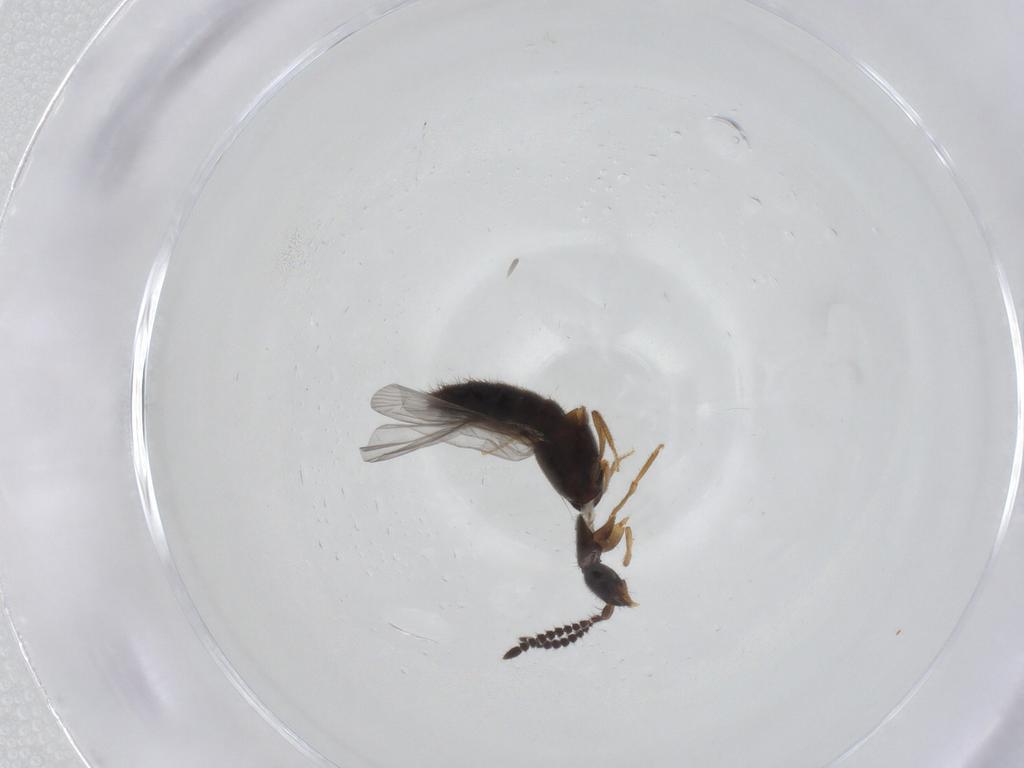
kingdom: Animalia
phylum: Arthropoda
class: Insecta
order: Coleoptera
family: Staphylinidae
